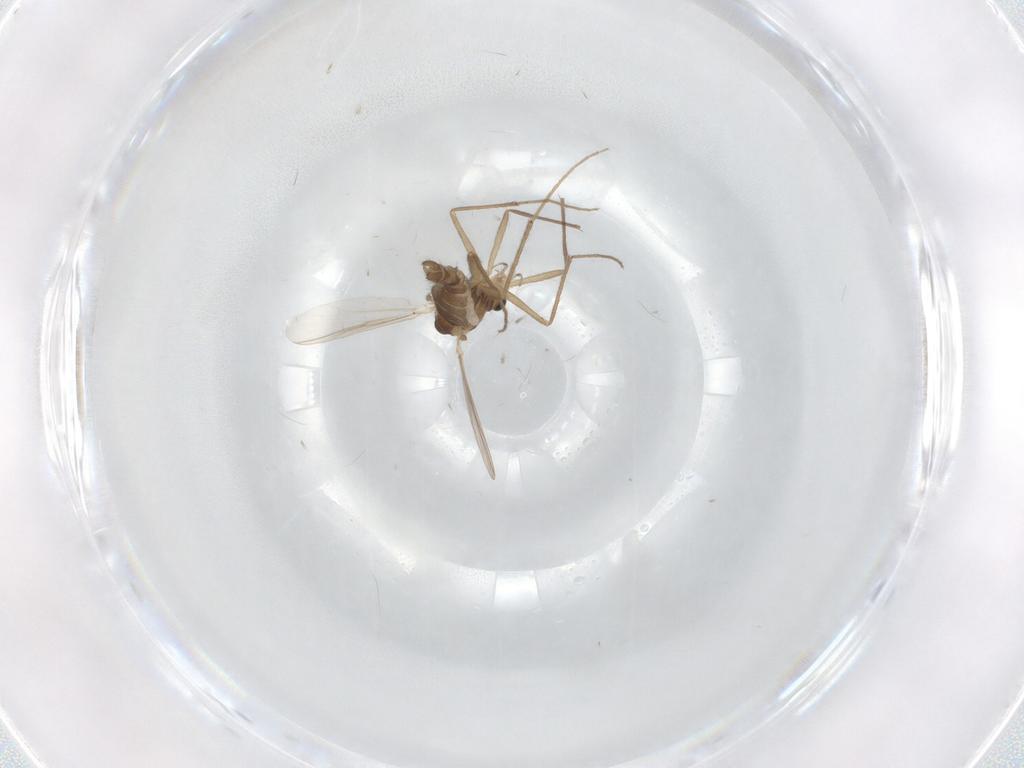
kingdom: Animalia
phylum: Arthropoda
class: Insecta
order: Diptera
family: Chironomidae
